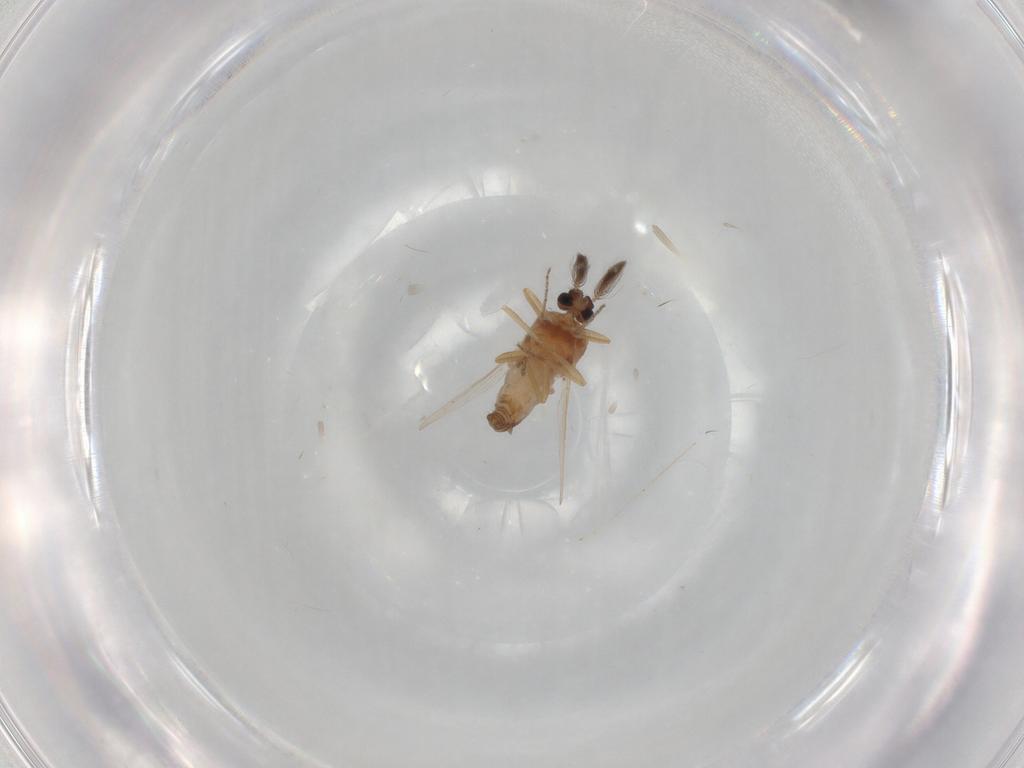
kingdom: Animalia
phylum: Arthropoda
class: Insecta
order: Diptera
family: Ceratopogonidae
